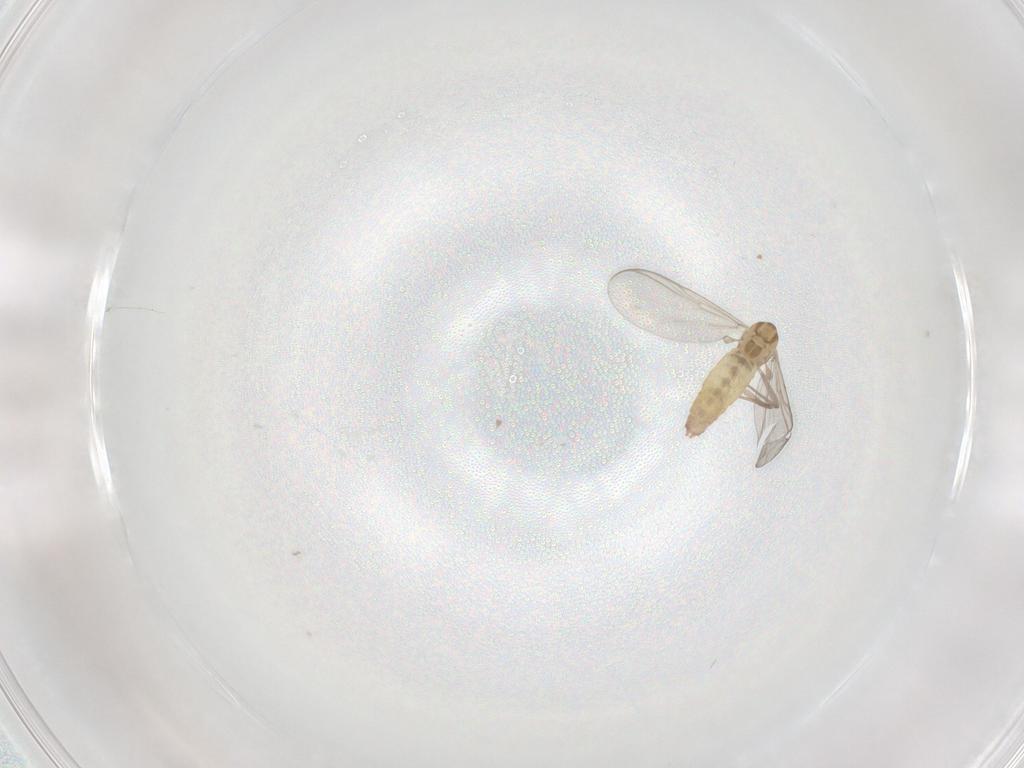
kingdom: Animalia
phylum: Arthropoda
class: Insecta
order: Diptera
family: Chironomidae
